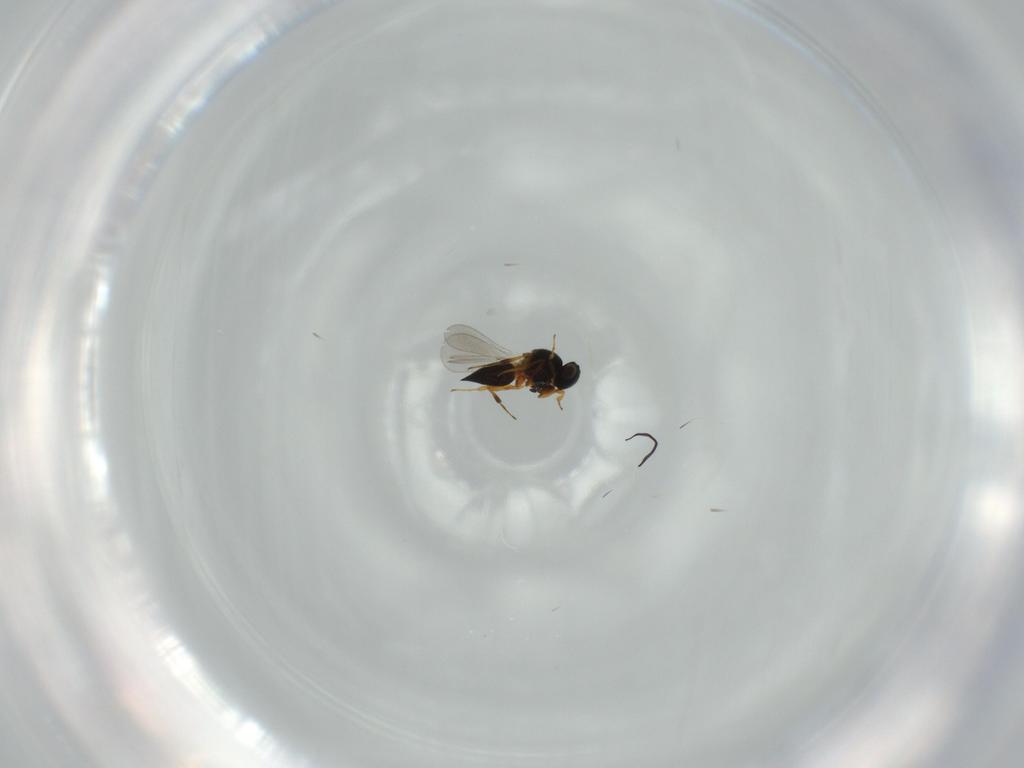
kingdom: Animalia
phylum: Arthropoda
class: Insecta
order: Hymenoptera
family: Platygastridae
